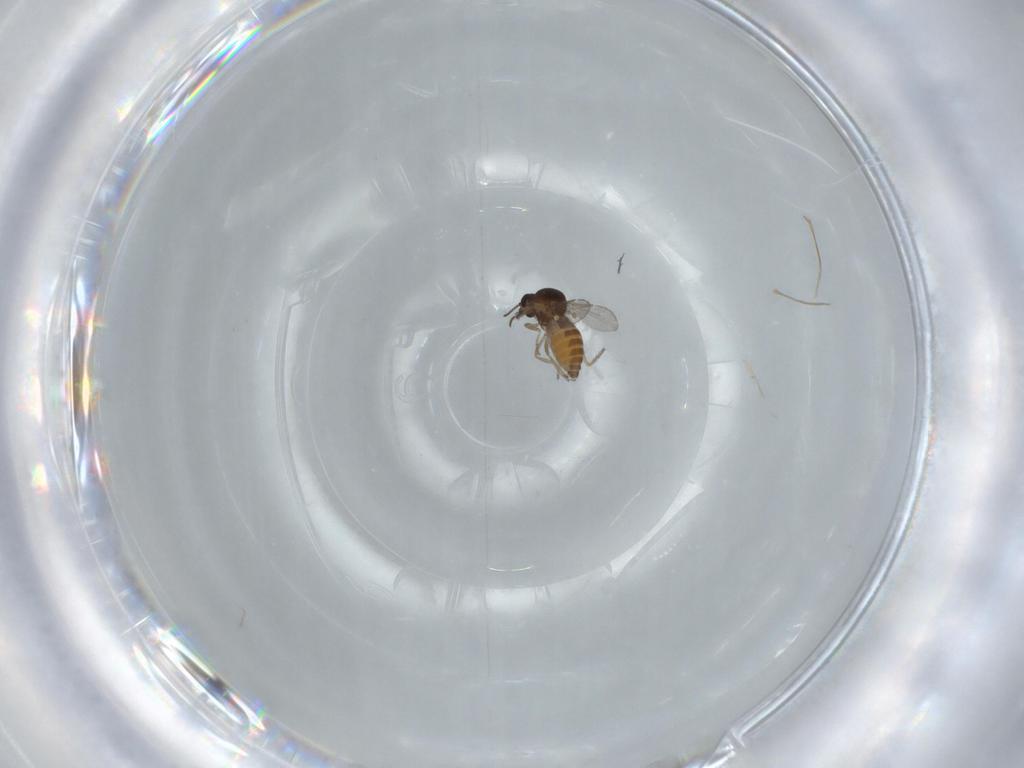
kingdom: Animalia
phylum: Arthropoda
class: Insecta
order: Diptera
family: Ceratopogonidae
